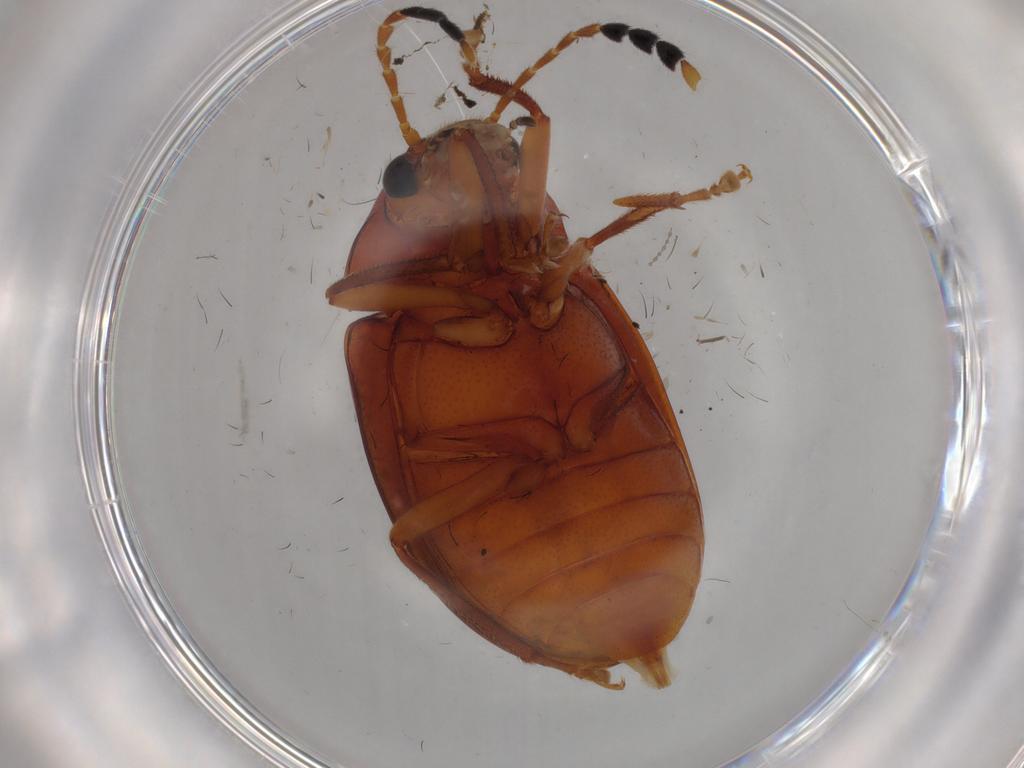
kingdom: Animalia
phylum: Arthropoda
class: Insecta
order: Coleoptera
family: Ptilodactylidae
